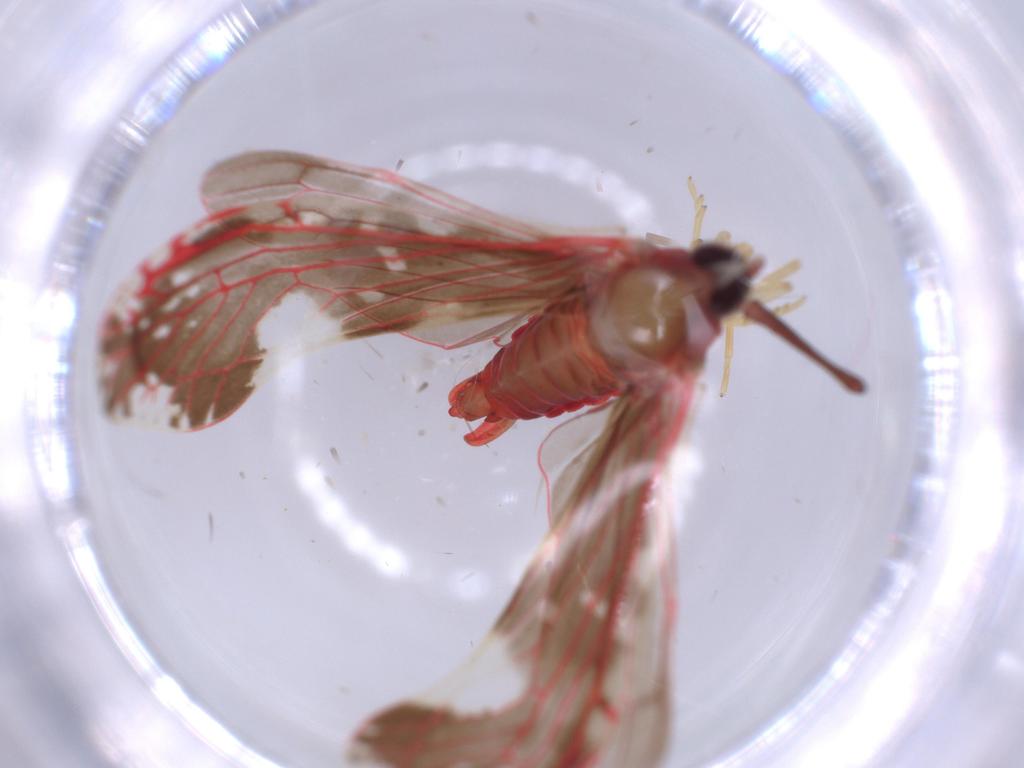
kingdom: Animalia
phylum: Arthropoda
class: Insecta
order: Hemiptera
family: Derbidae
